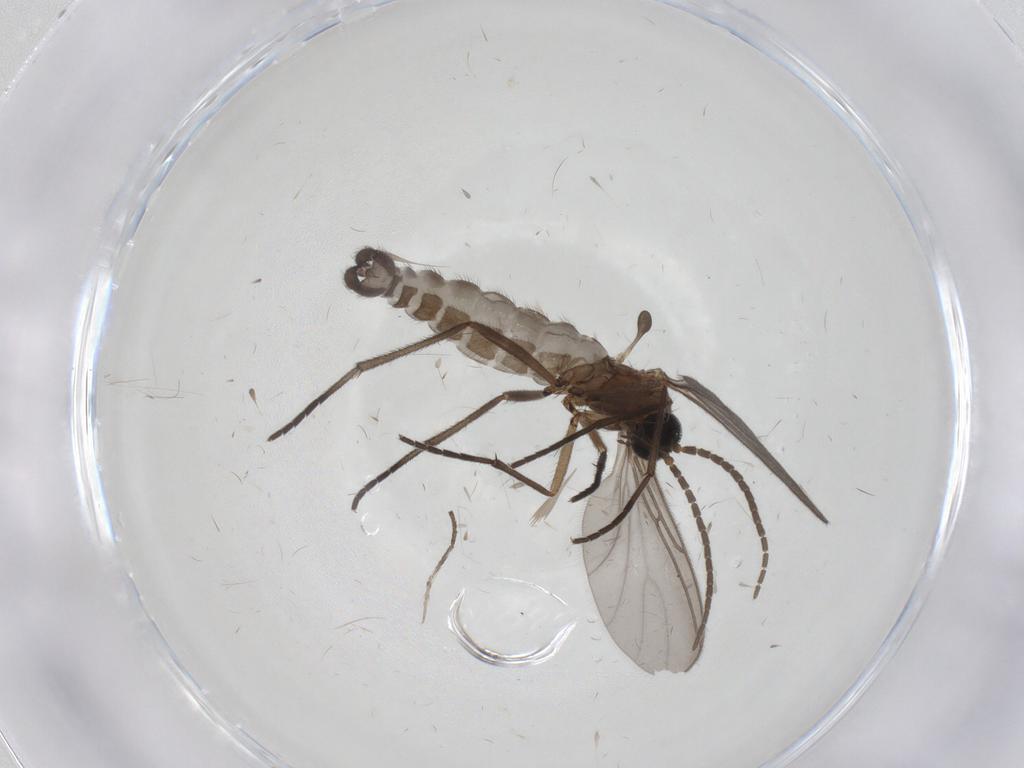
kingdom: Animalia
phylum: Arthropoda
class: Insecta
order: Diptera
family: Cecidomyiidae
